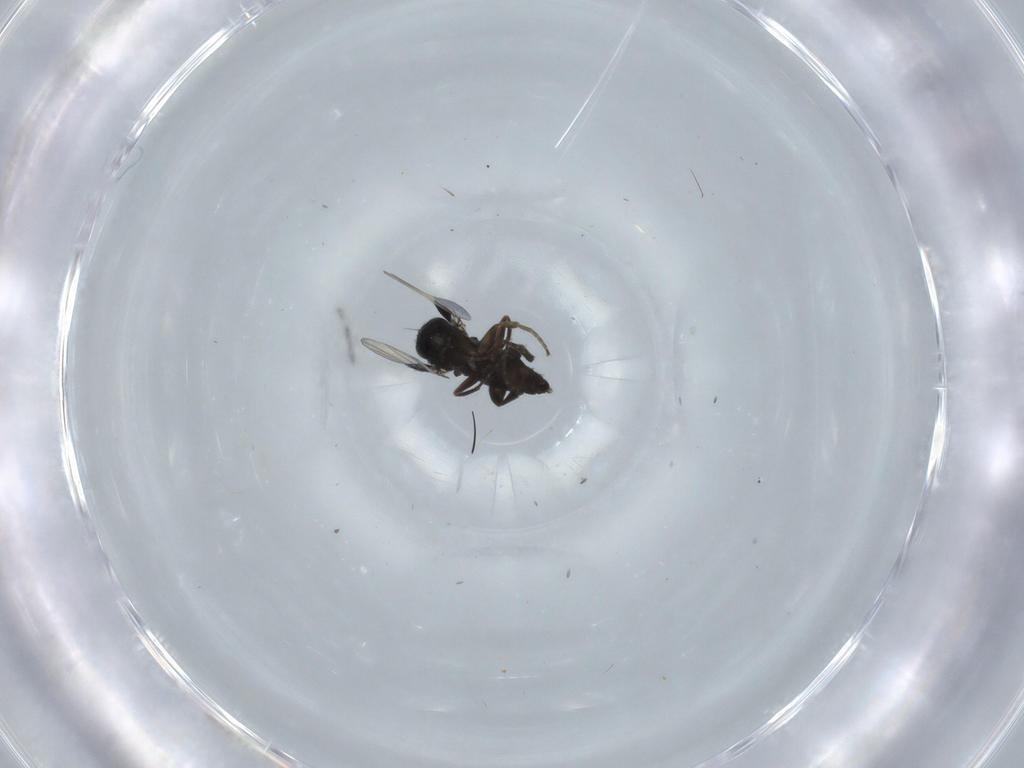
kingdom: Animalia
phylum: Arthropoda
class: Insecta
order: Diptera
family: Phoridae
